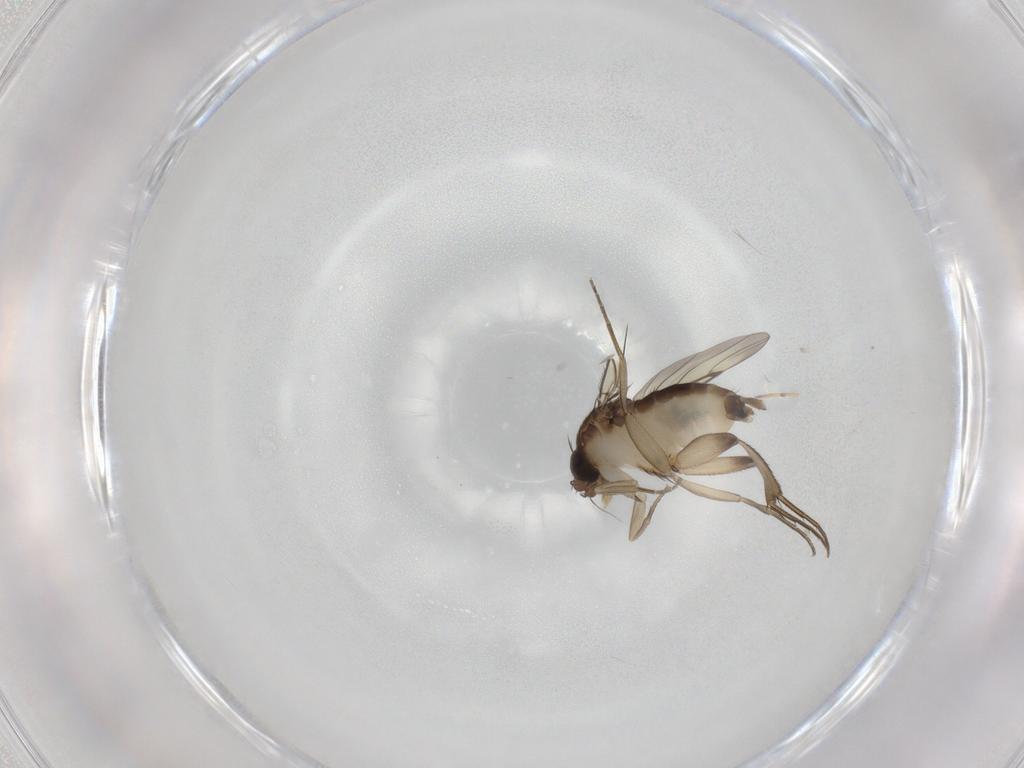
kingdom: Animalia
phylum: Arthropoda
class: Insecta
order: Diptera
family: Phoridae
